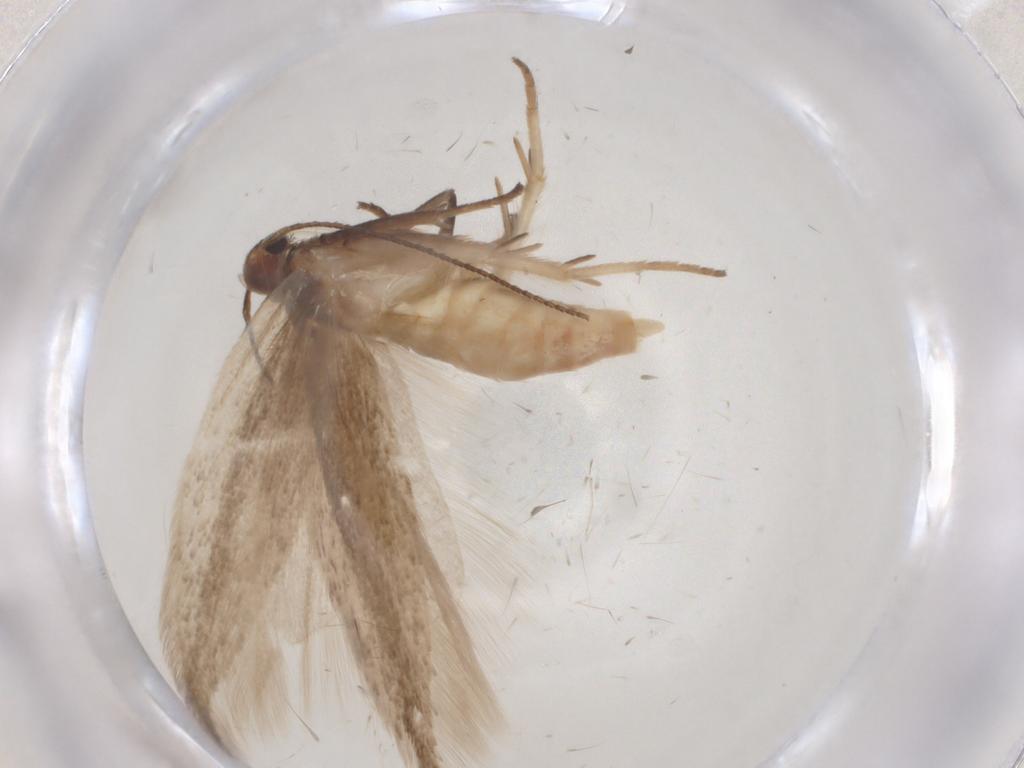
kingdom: Animalia
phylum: Arthropoda
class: Insecta
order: Lepidoptera
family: Gelechiidae
